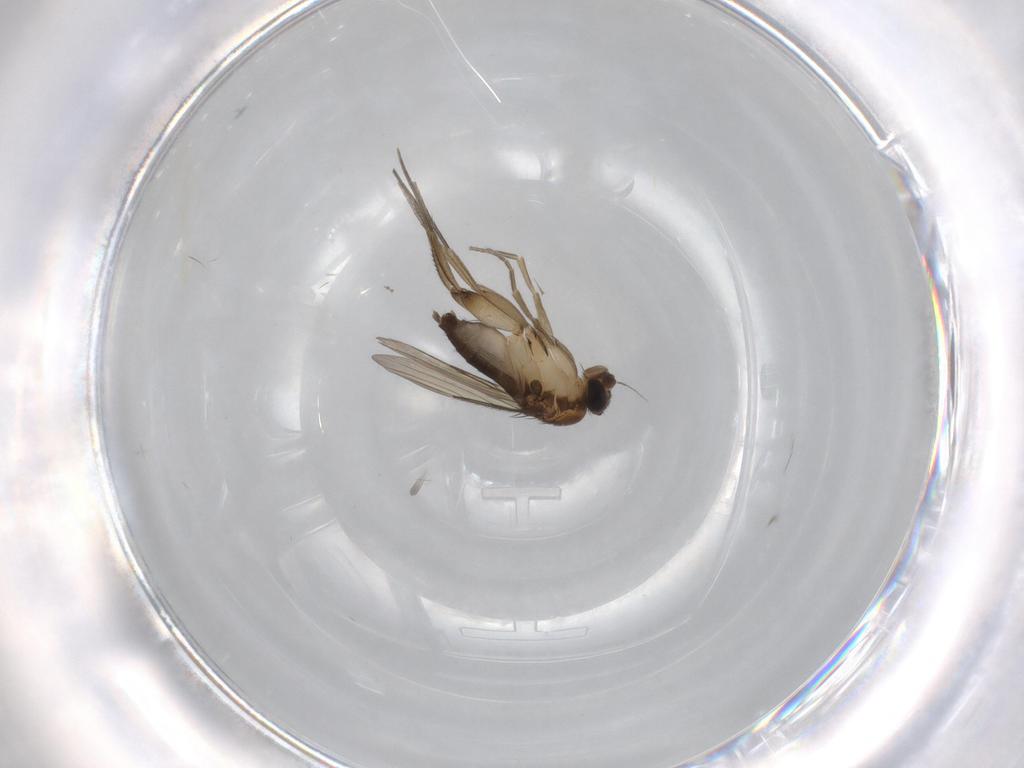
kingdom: Animalia
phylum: Arthropoda
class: Insecta
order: Diptera
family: Phoridae
